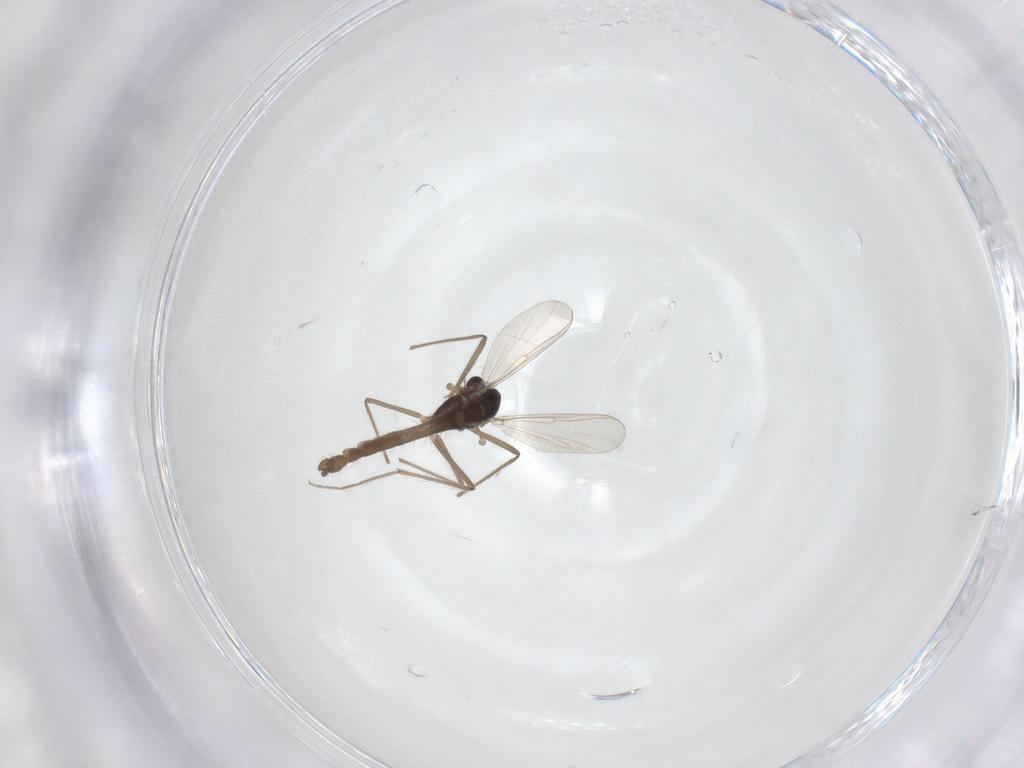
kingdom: Animalia
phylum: Arthropoda
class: Insecta
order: Diptera
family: Chironomidae
